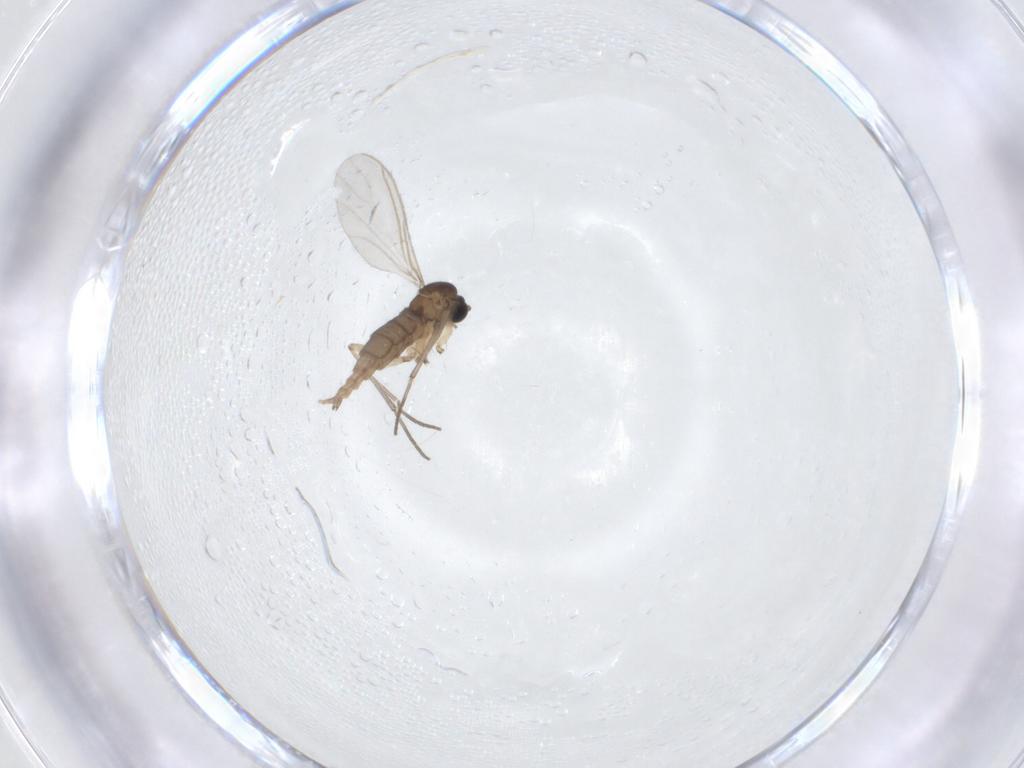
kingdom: Animalia
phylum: Arthropoda
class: Insecta
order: Diptera
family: Sciaridae
